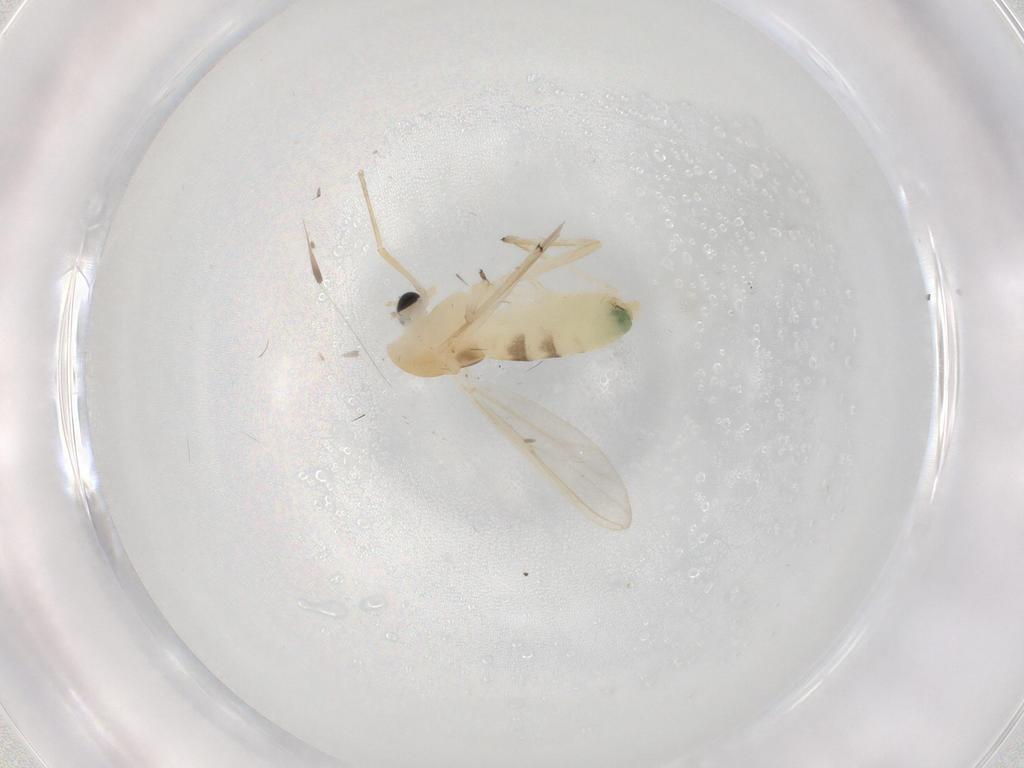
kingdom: Animalia
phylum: Arthropoda
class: Insecta
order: Diptera
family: Chironomidae
